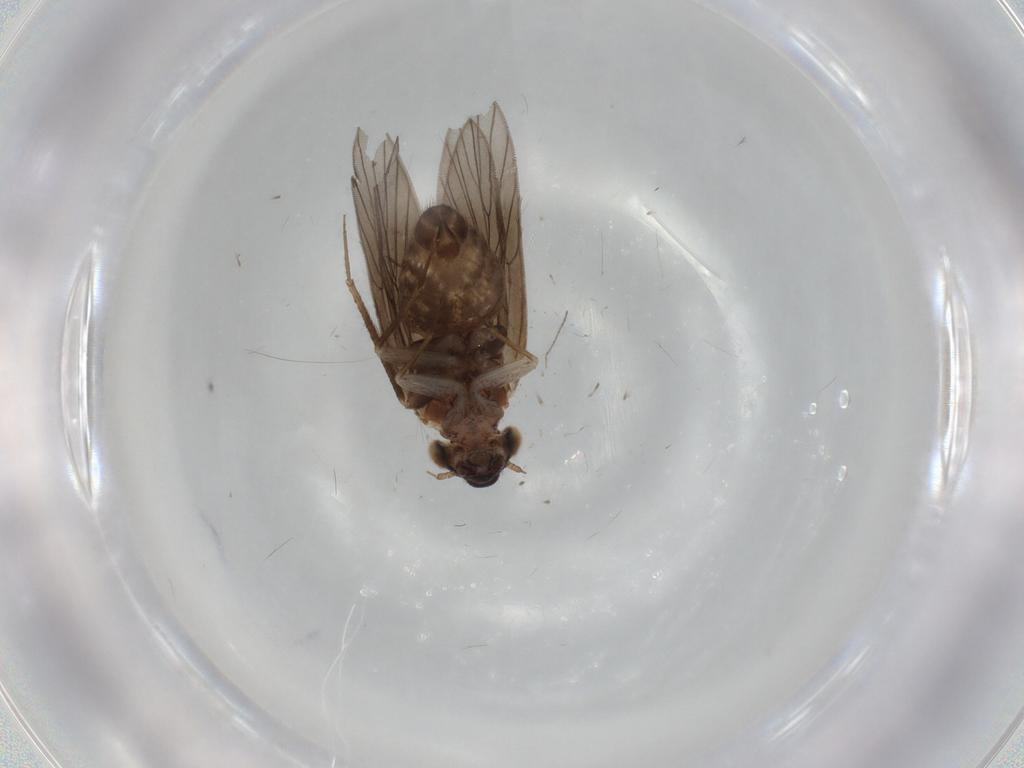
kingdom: Animalia
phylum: Arthropoda
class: Insecta
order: Psocodea
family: Lepidopsocidae
